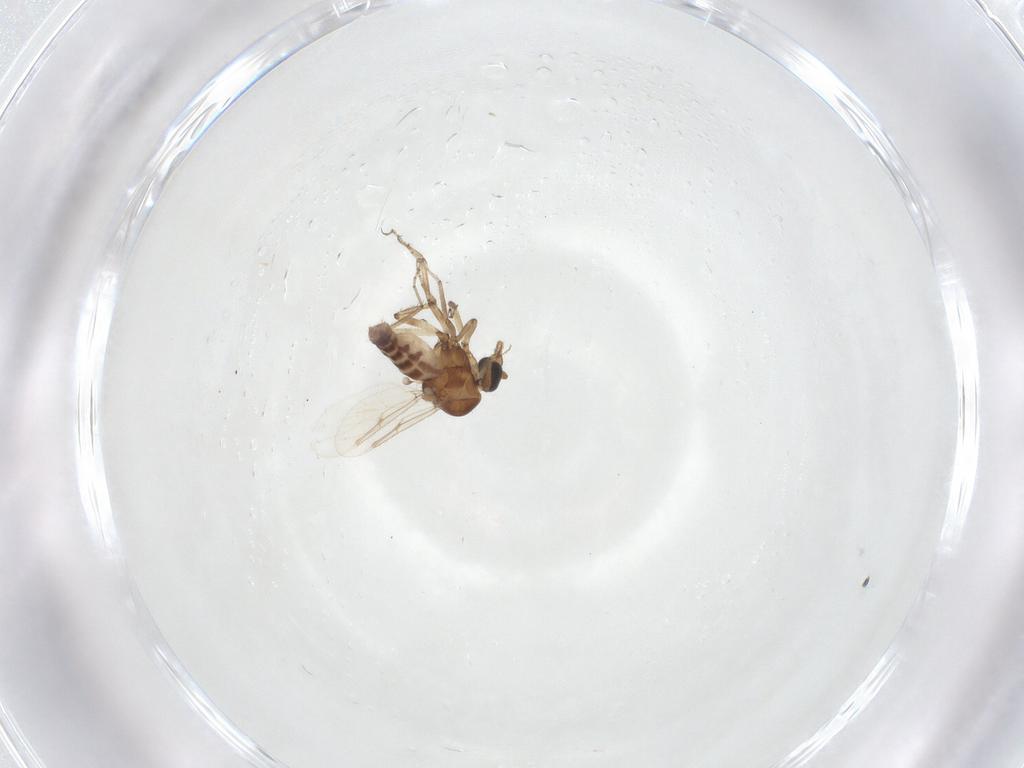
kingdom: Animalia
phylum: Arthropoda
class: Insecta
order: Diptera
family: Ceratopogonidae
